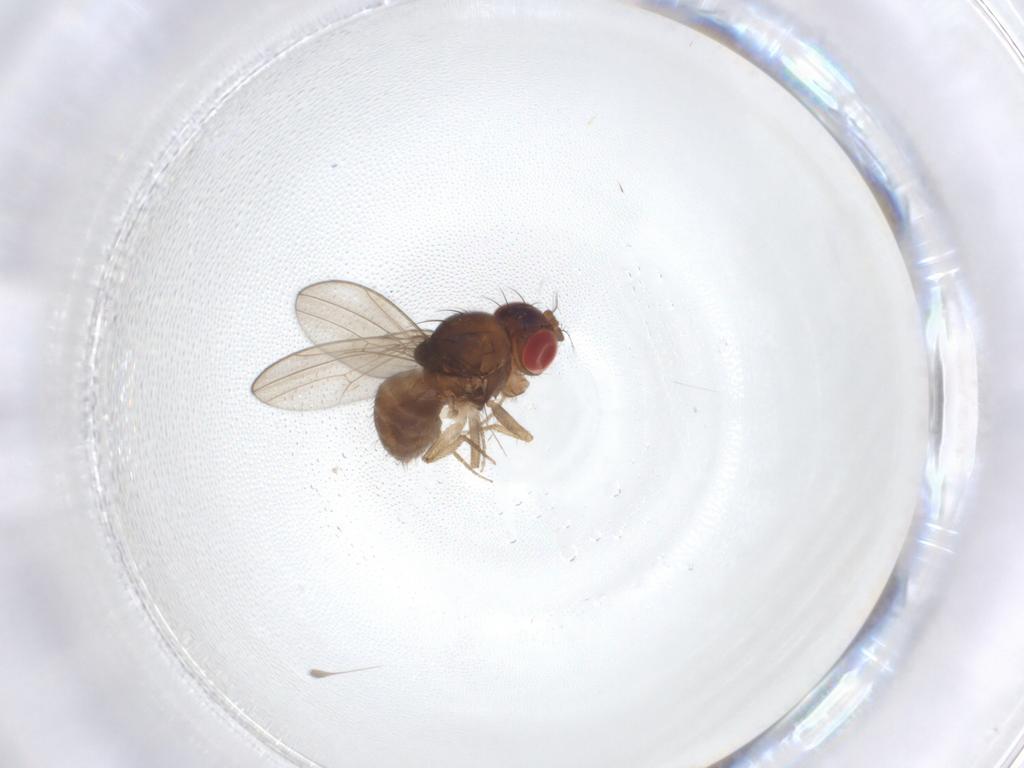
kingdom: Animalia
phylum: Arthropoda
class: Insecta
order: Diptera
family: Drosophilidae
